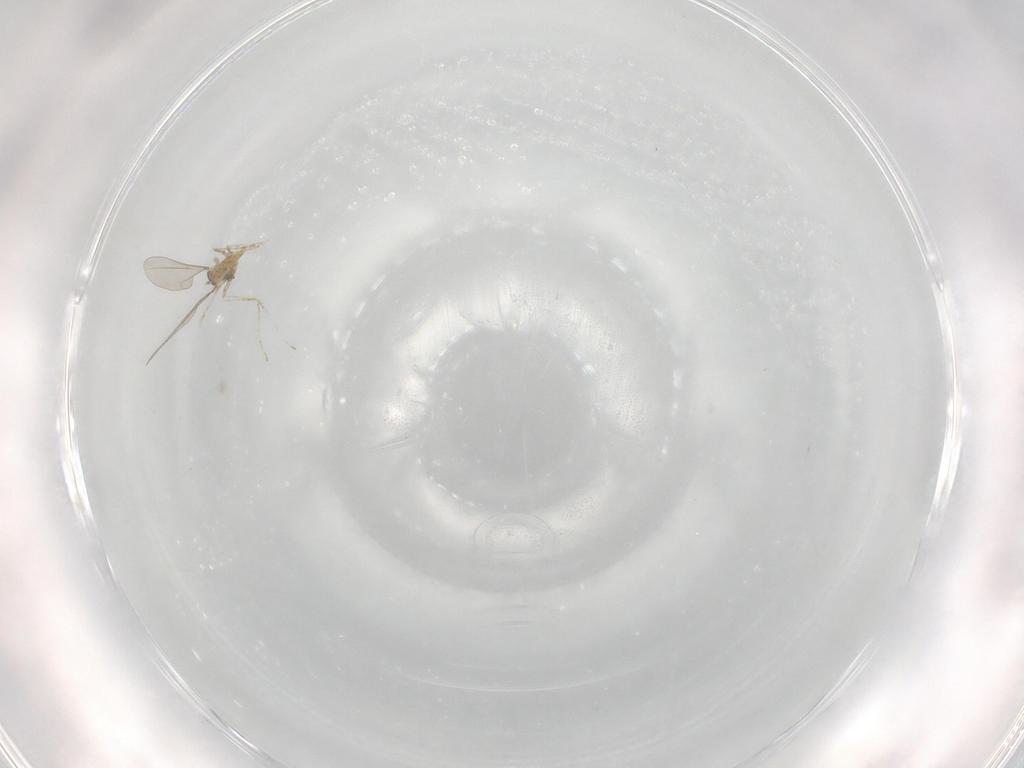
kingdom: Animalia
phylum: Arthropoda
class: Insecta
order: Diptera
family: Cecidomyiidae
